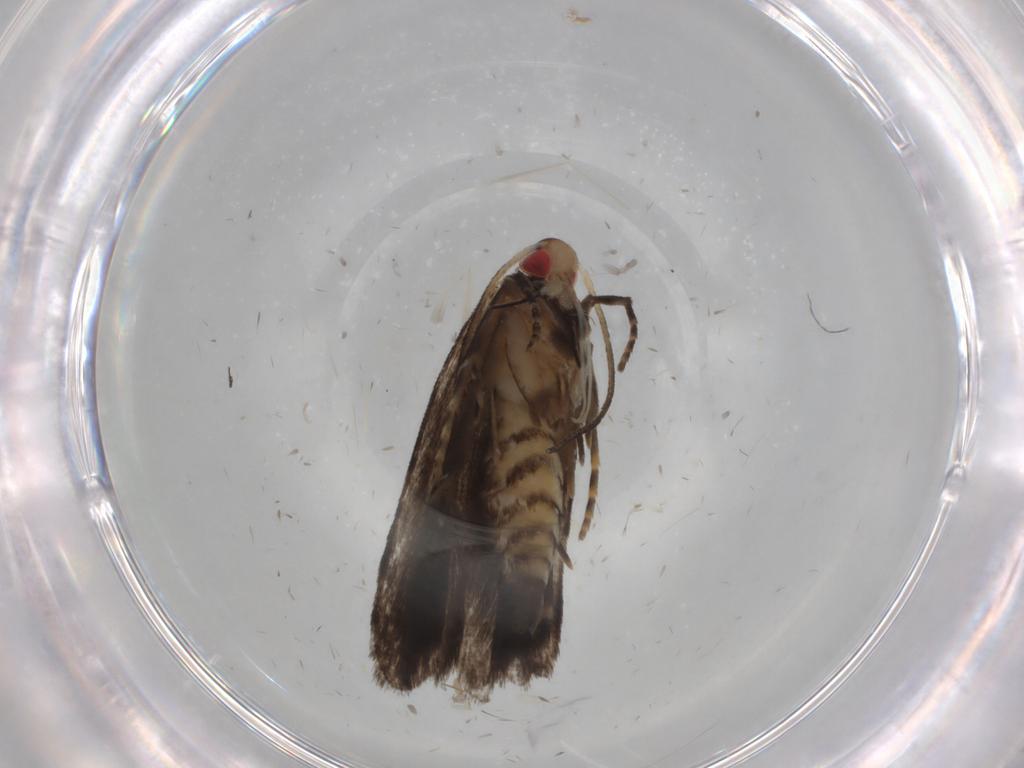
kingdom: Animalia
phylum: Arthropoda
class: Insecta
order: Lepidoptera
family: Gelechiidae
